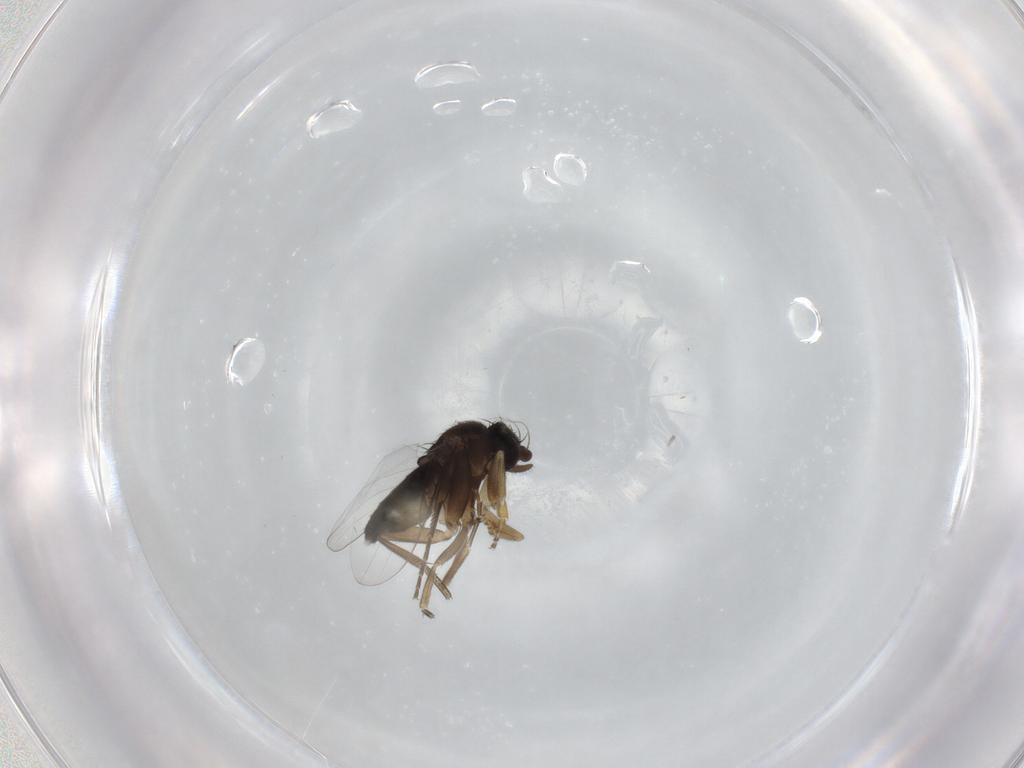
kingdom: Animalia
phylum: Arthropoda
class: Insecta
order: Diptera
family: Phoridae
